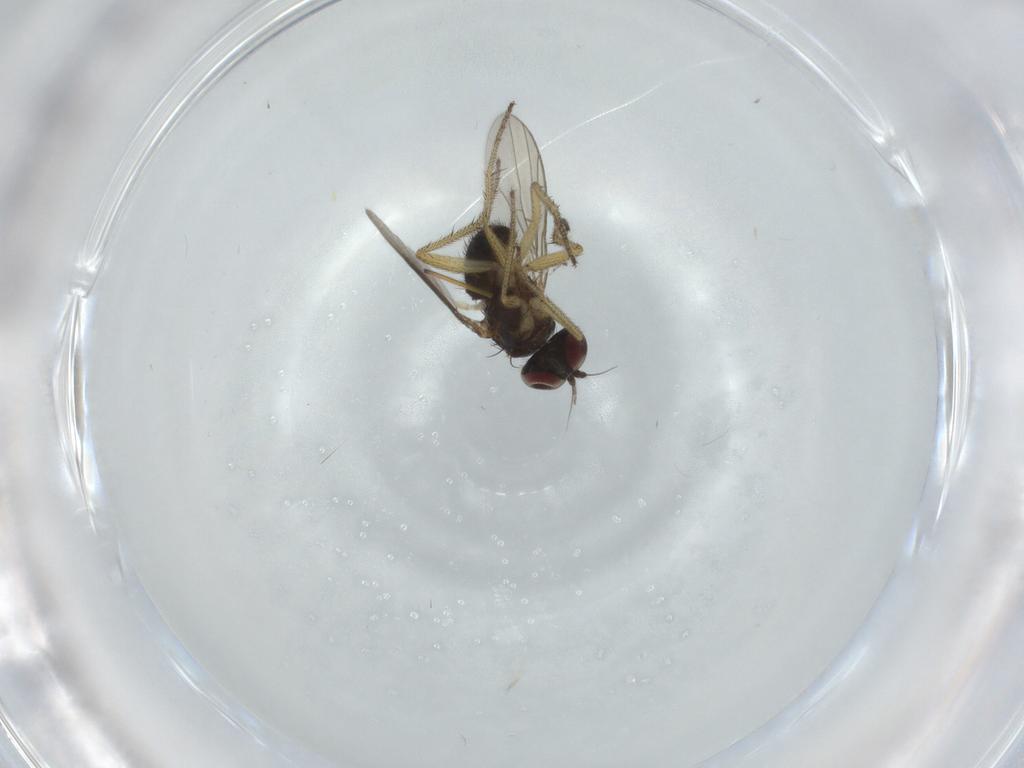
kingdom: Animalia
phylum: Arthropoda
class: Insecta
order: Diptera
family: Dolichopodidae
